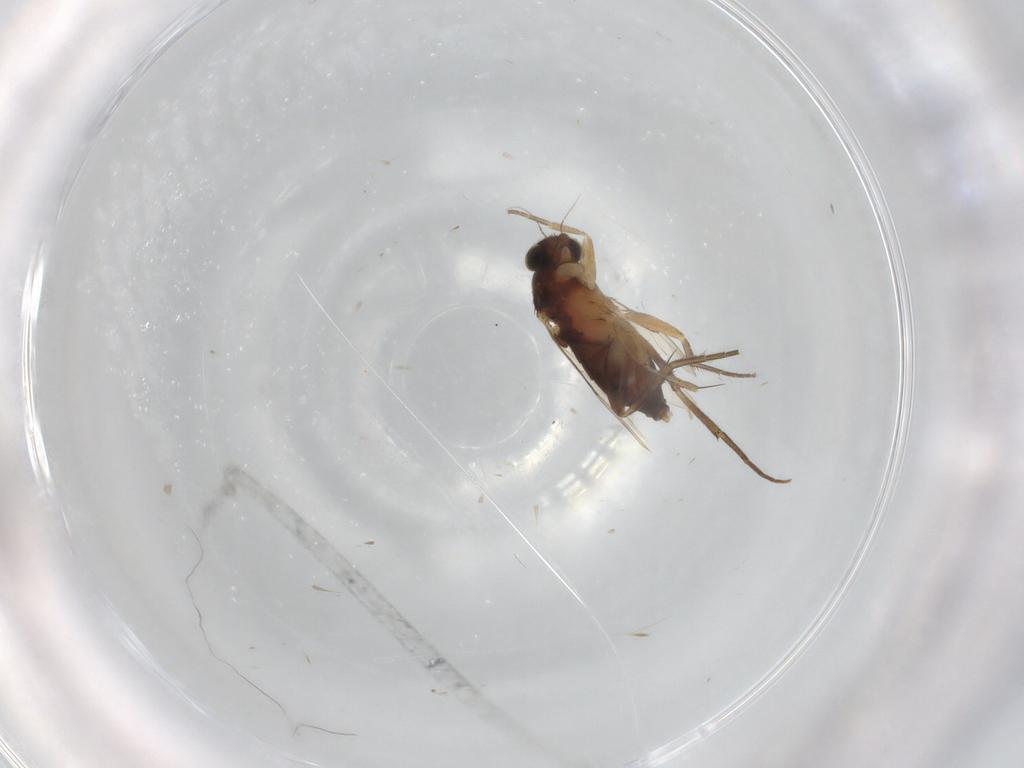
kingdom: Animalia
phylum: Arthropoda
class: Insecta
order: Diptera
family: Phoridae
